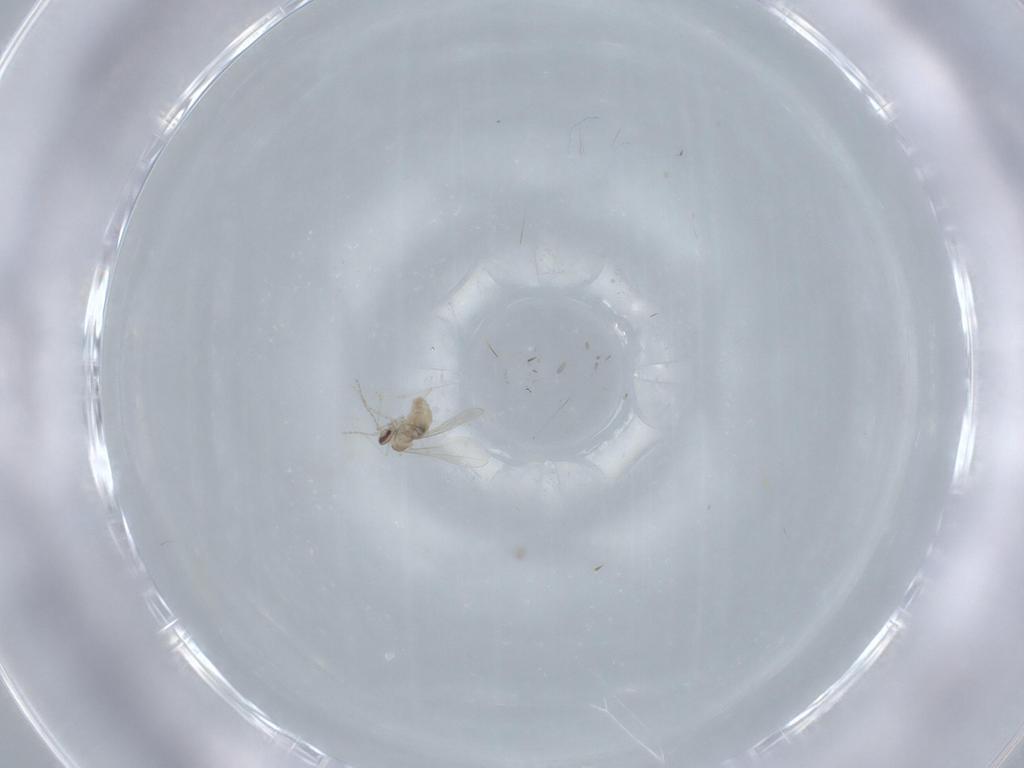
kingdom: Animalia
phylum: Arthropoda
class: Insecta
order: Diptera
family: Cecidomyiidae
